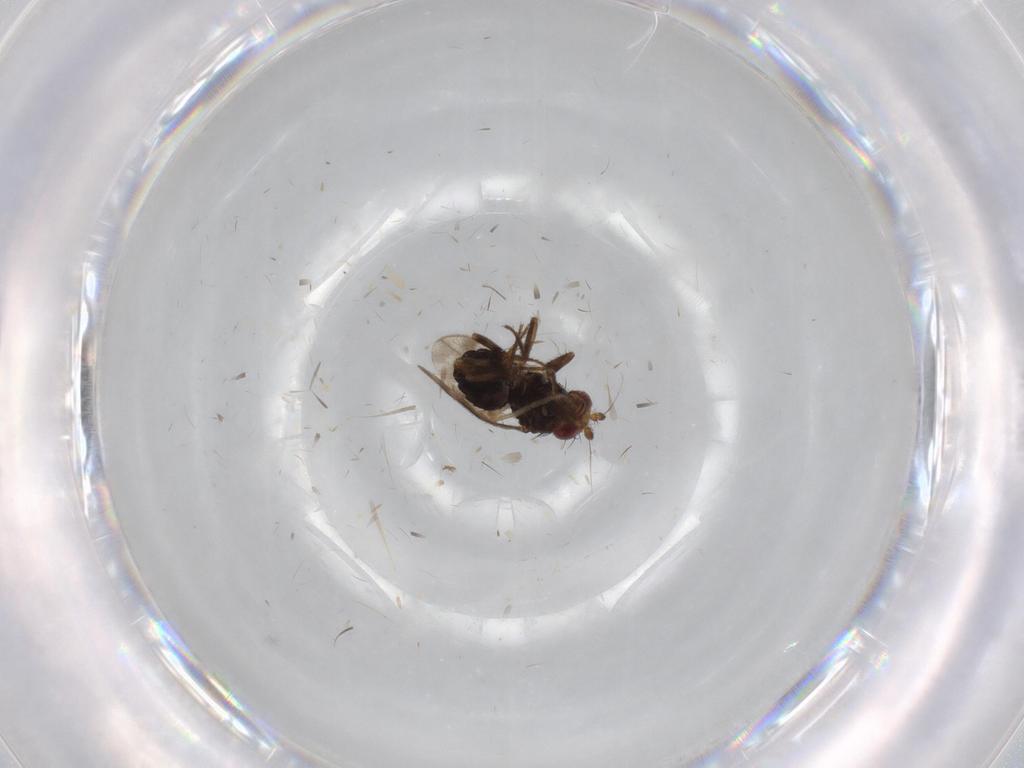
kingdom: Animalia
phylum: Arthropoda
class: Insecta
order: Diptera
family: Sphaeroceridae
